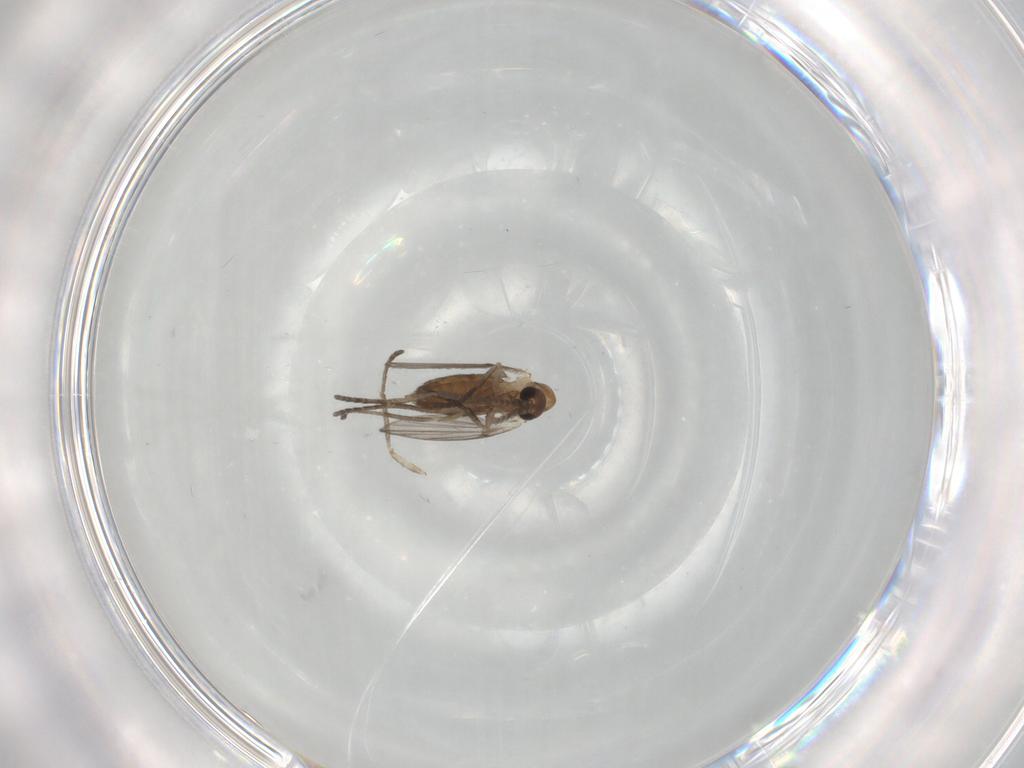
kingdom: Animalia
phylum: Arthropoda
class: Insecta
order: Diptera
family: Psychodidae
